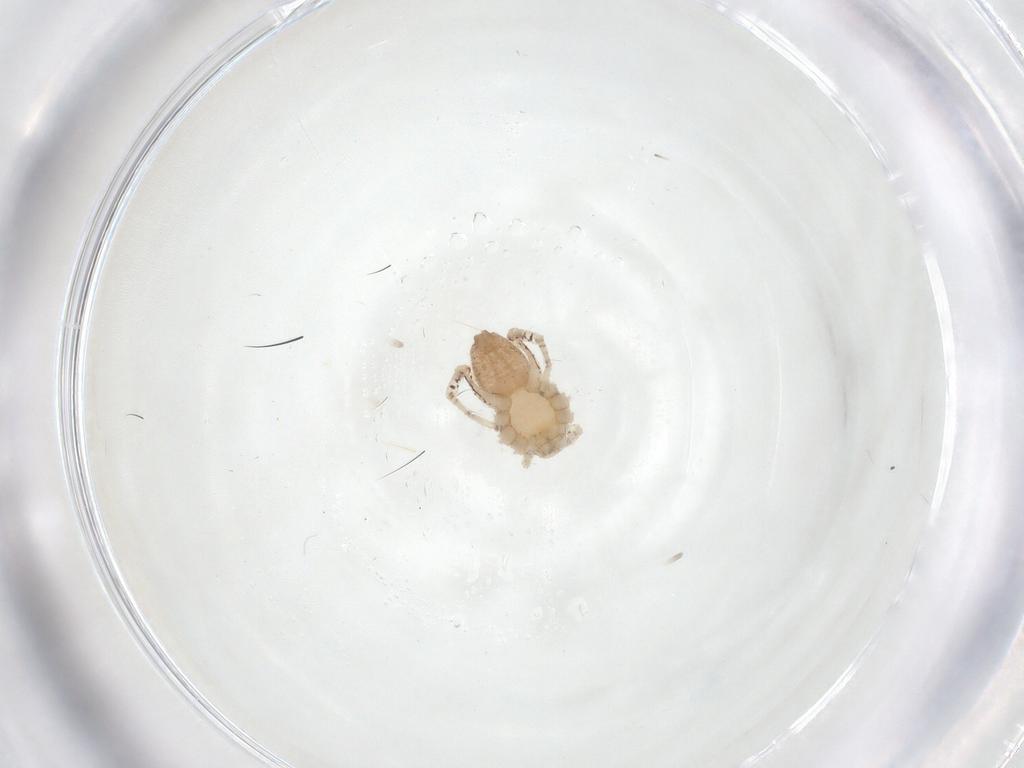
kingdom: Animalia
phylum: Arthropoda
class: Arachnida
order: Araneae
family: Philodromidae
